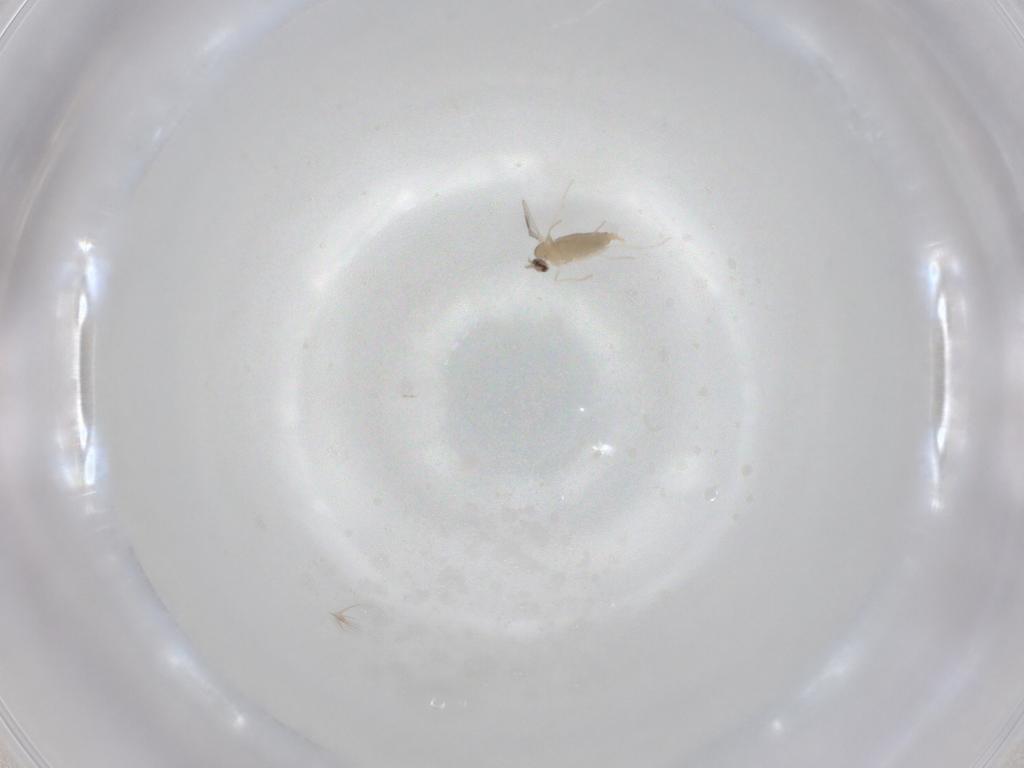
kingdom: Animalia
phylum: Arthropoda
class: Insecta
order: Diptera
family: Cecidomyiidae
